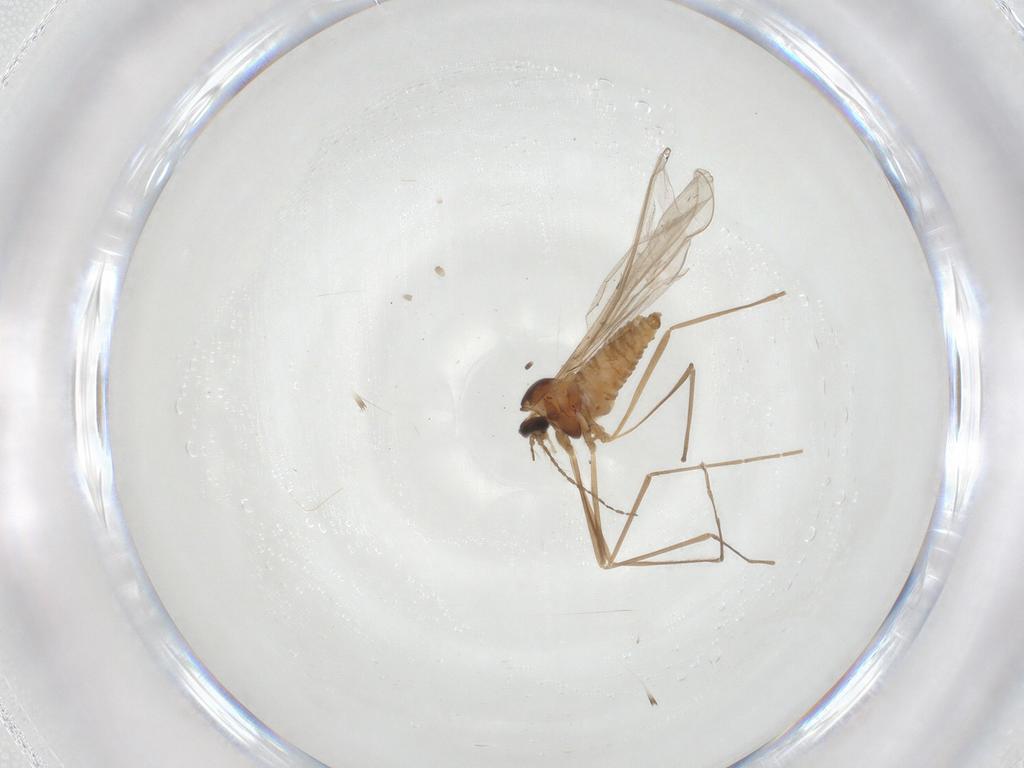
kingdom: Animalia
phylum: Arthropoda
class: Insecta
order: Diptera
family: Cecidomyiidae
